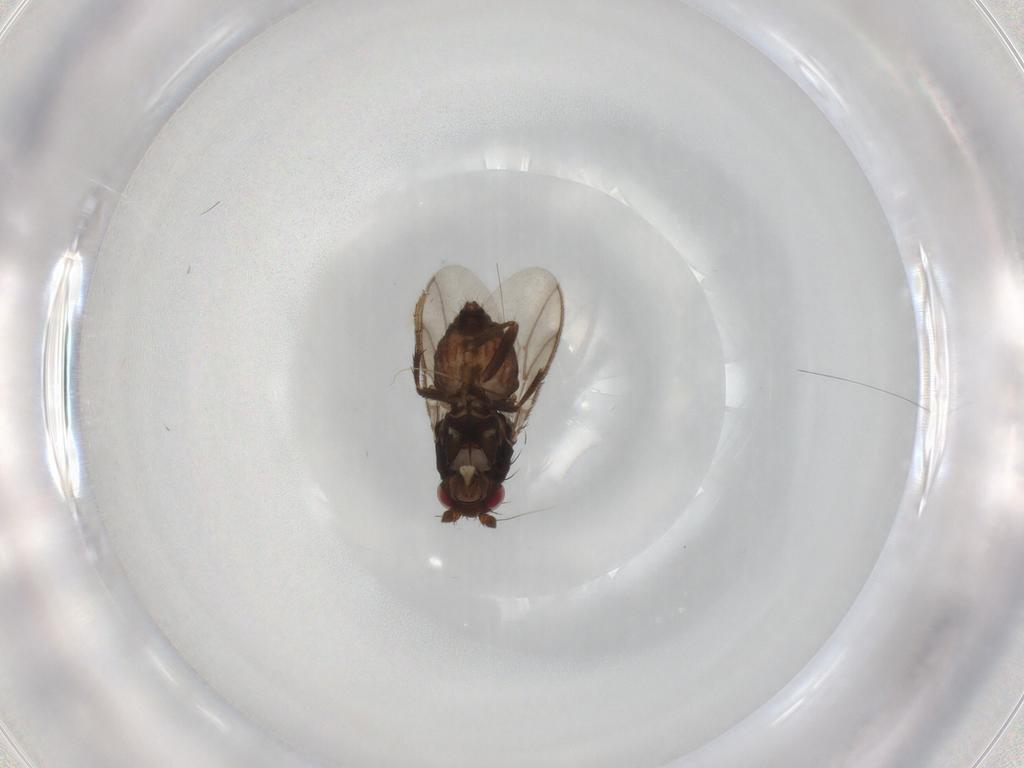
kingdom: Animalia
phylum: Arthropoda
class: Insecta
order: Diptera
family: Sphaeroceridae
